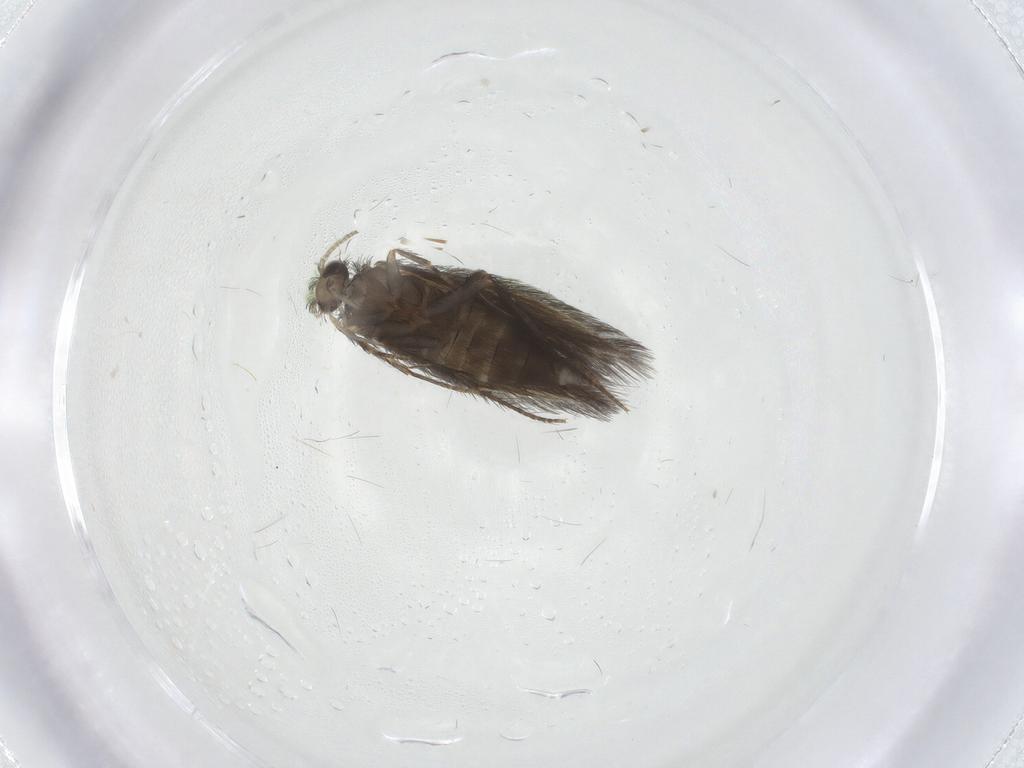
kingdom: Animalia
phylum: Arthropoda
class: Insecta
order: Trichoptera
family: Hydroptilidae
